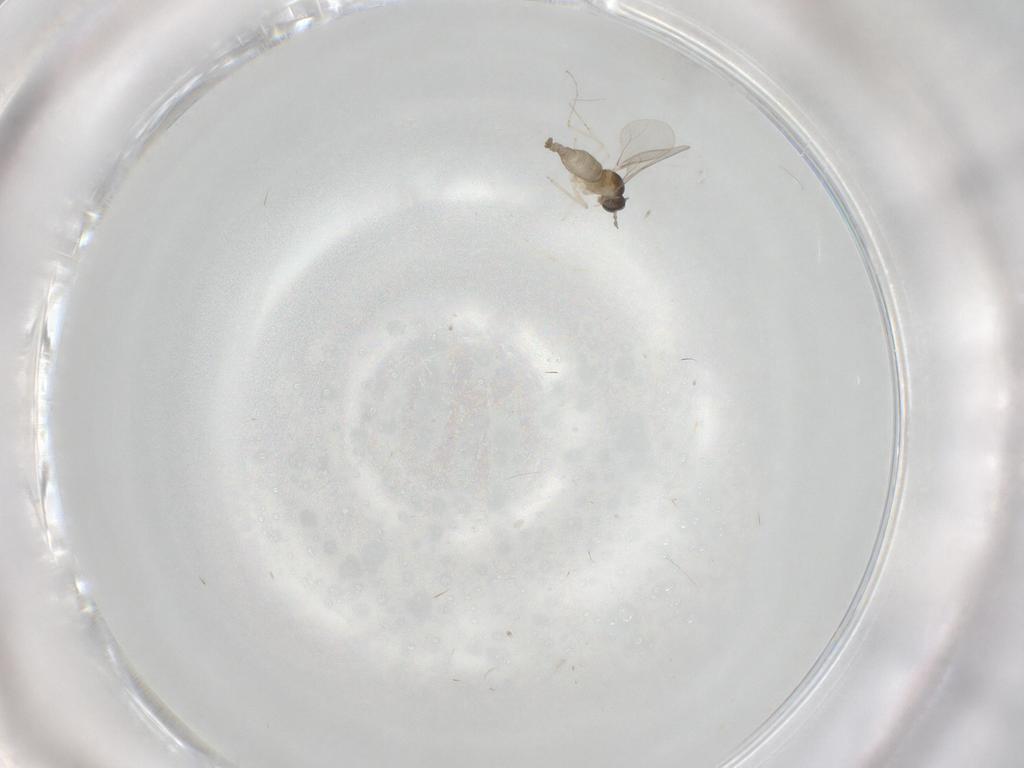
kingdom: Animalia
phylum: Arthropoda
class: Insecta
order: Diptera
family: Cecidomyiidae
